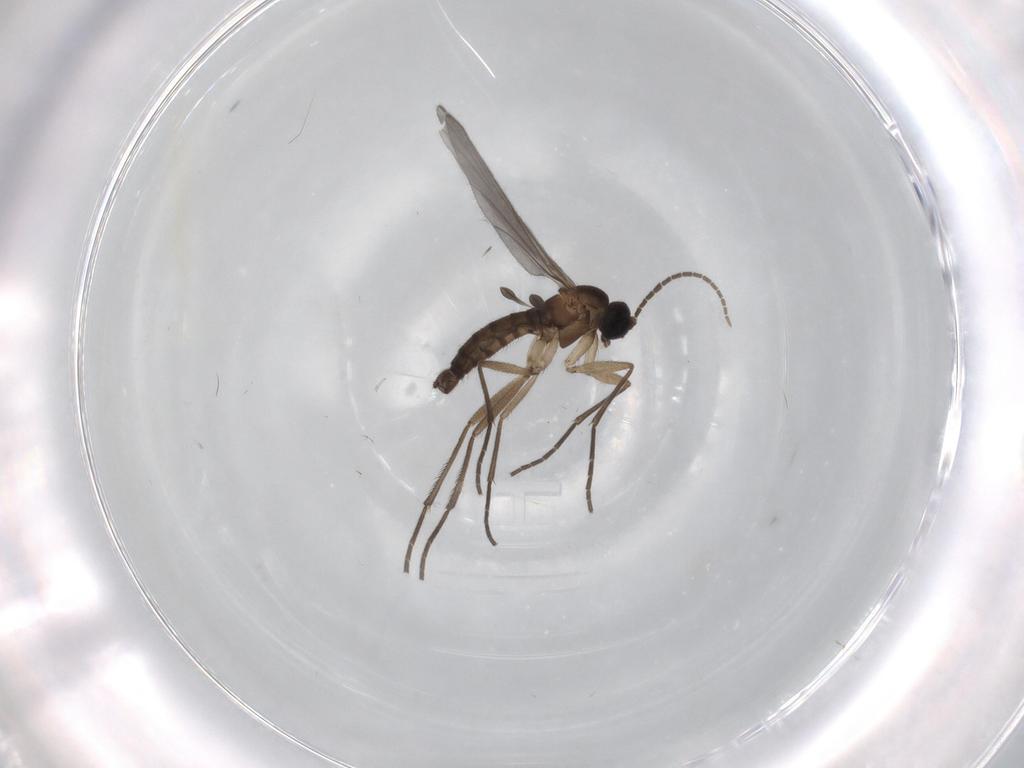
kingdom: Animalia
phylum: Arthropoda
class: Insecta
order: Diptera
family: Sciaridae
